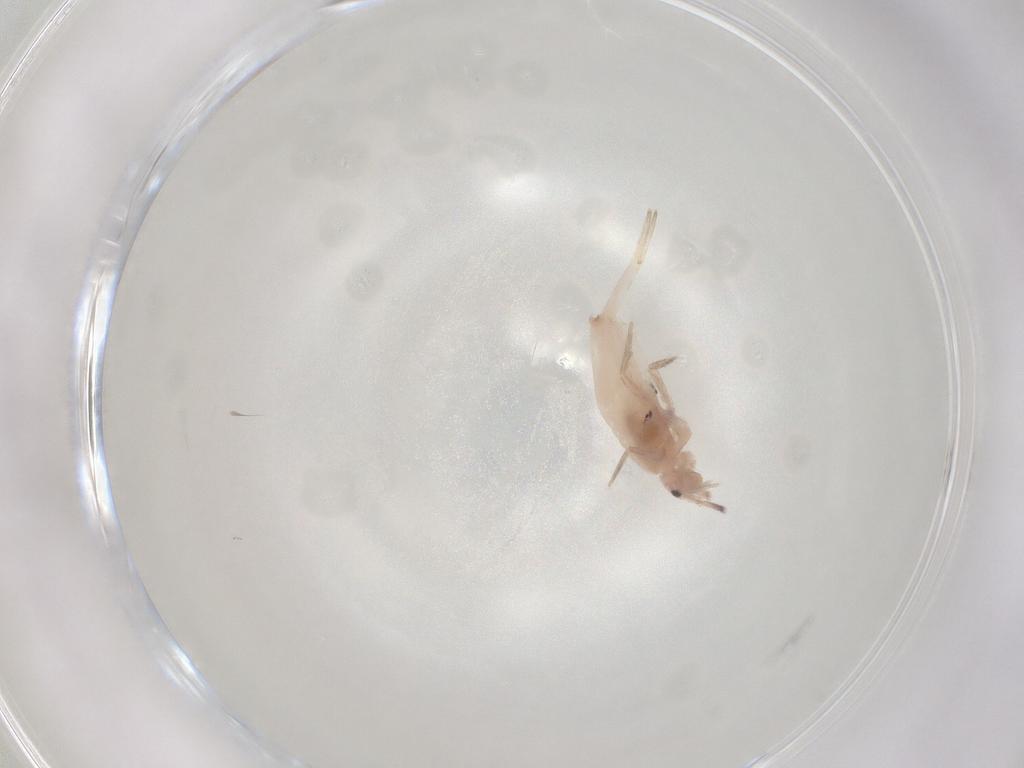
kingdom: Animalia
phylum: Arthropoda
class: Collembola
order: Entomobryomorpha
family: Entomobryidae
